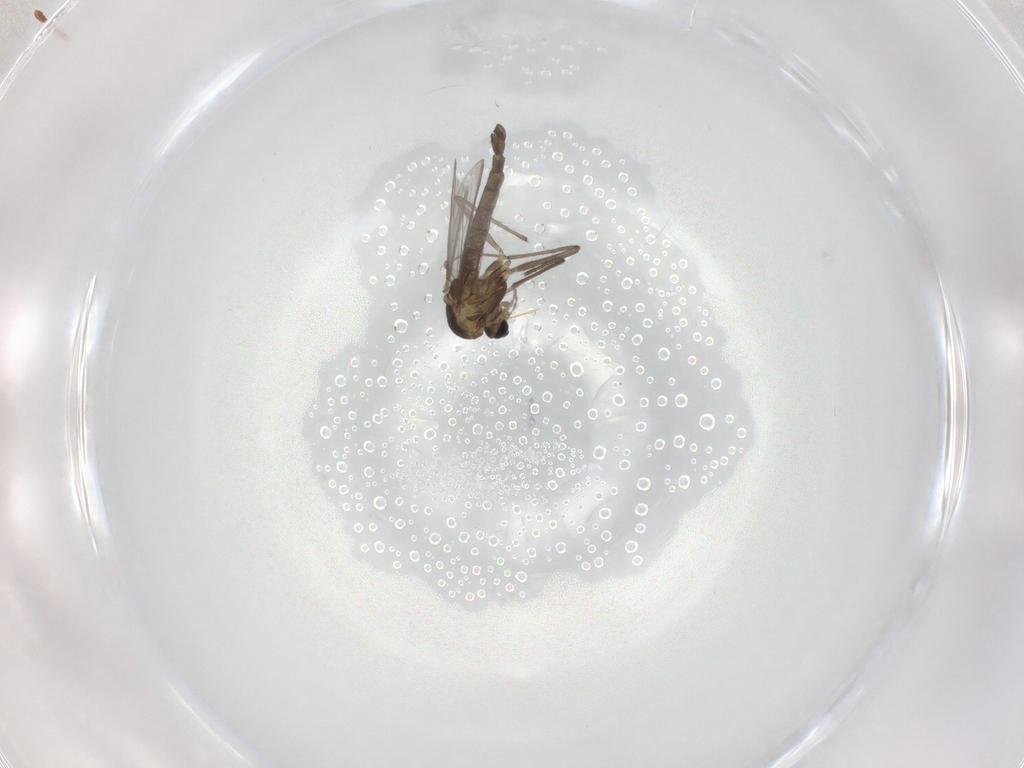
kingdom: Animalia
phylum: Arthropoda
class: Insecta
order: Diptera
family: Chironomidae
